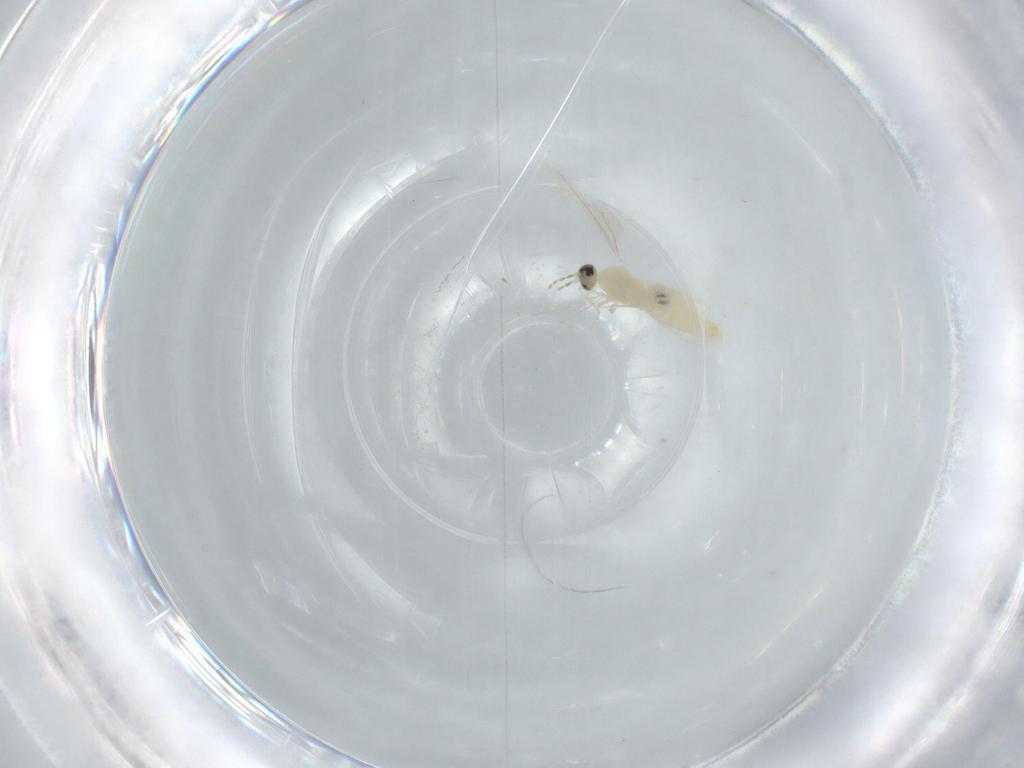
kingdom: Animalia
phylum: Arthropoda
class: Insecta
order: Diptera
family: Cecidomyiidae
